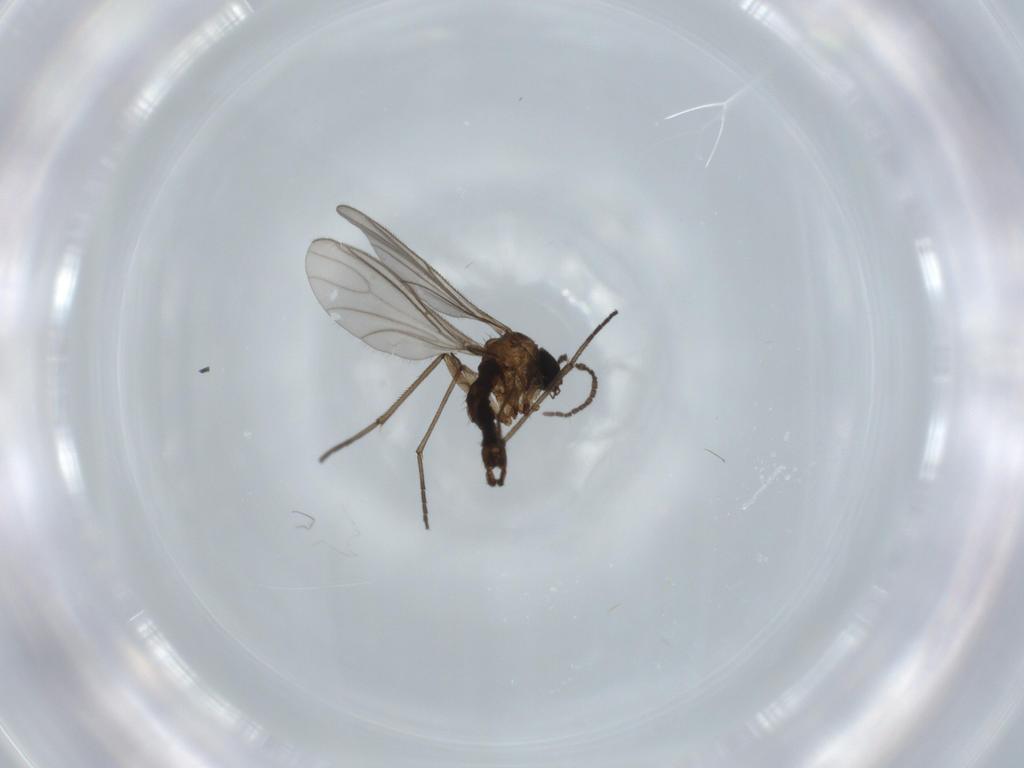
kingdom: Animalia
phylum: Arthropoda
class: Insecta
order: Diptera
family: Sciaridae
